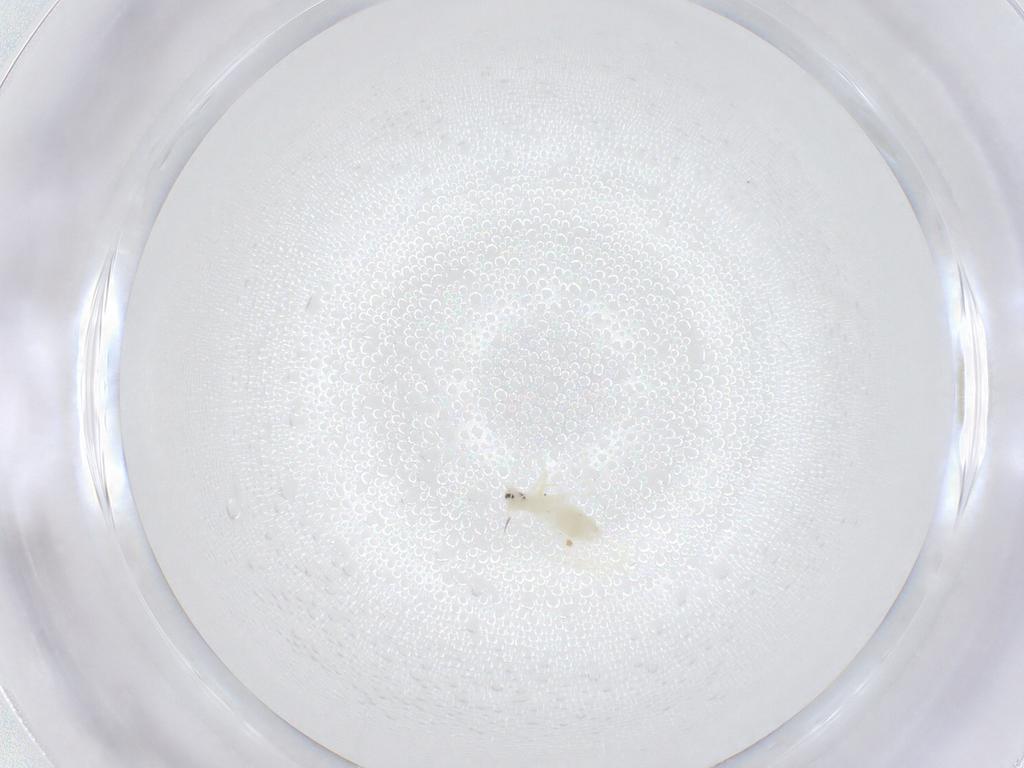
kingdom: Animalia
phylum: Arthropoda
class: Insecta
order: Hemiptera
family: Aleyrodidae
